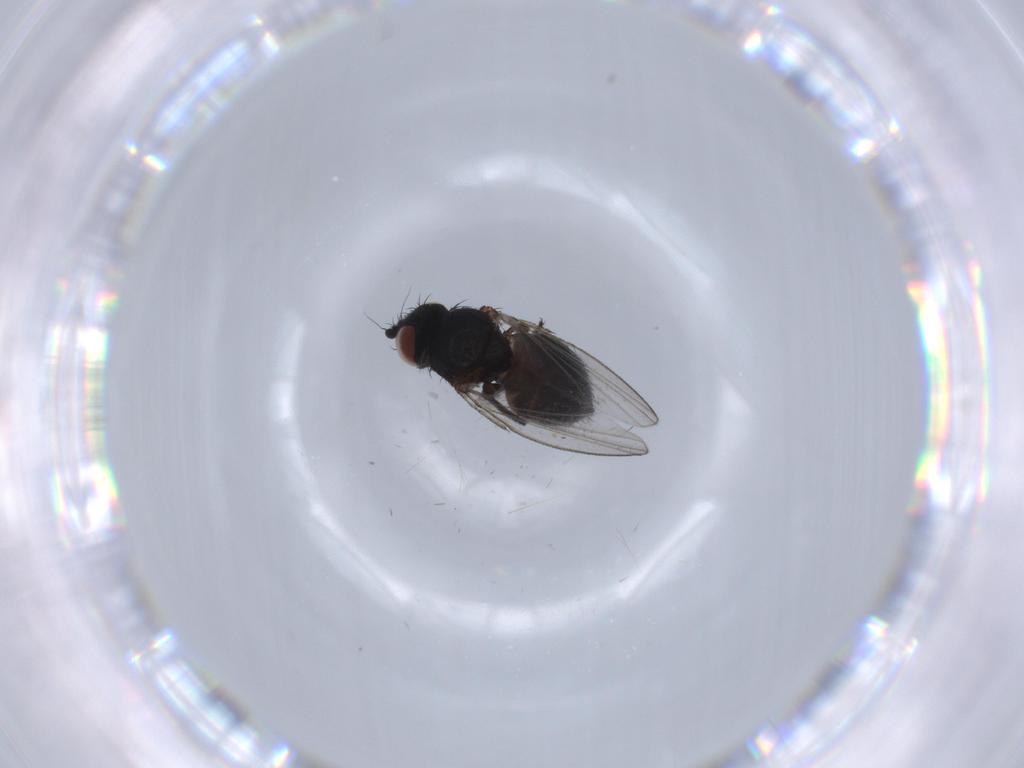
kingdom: Animalia
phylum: Arthropoda
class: Insecta
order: Diptera
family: Milichiidae
